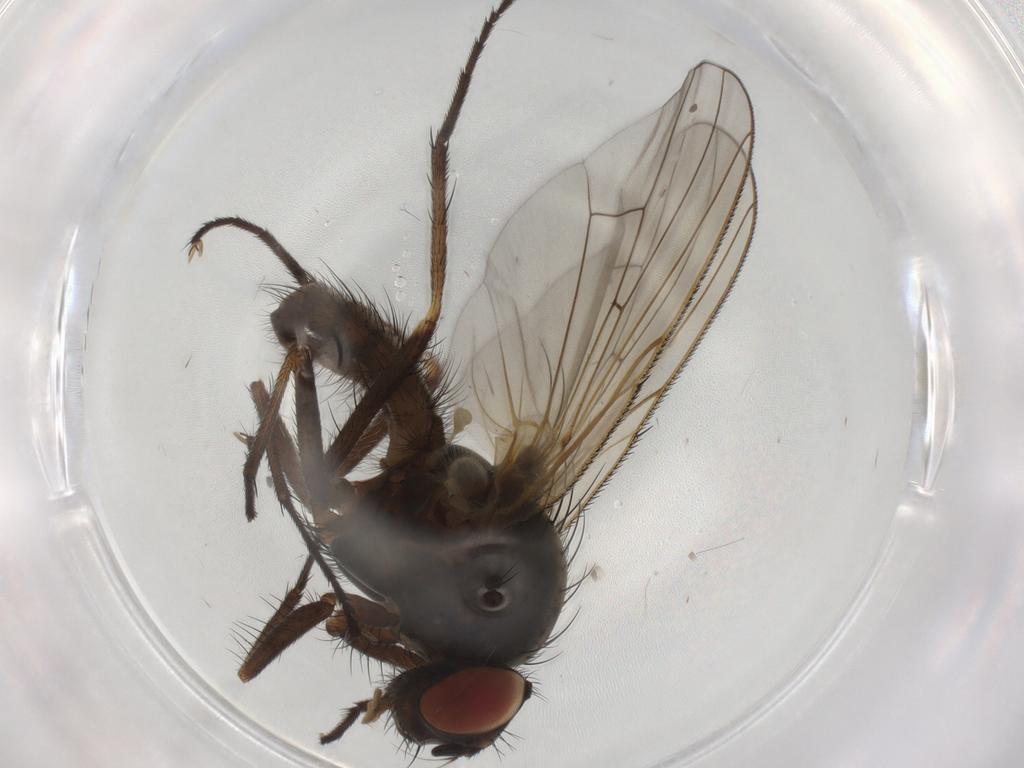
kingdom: Animalia
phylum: Arthropoda
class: Insecta
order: Diptera
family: Anthomyiidae
